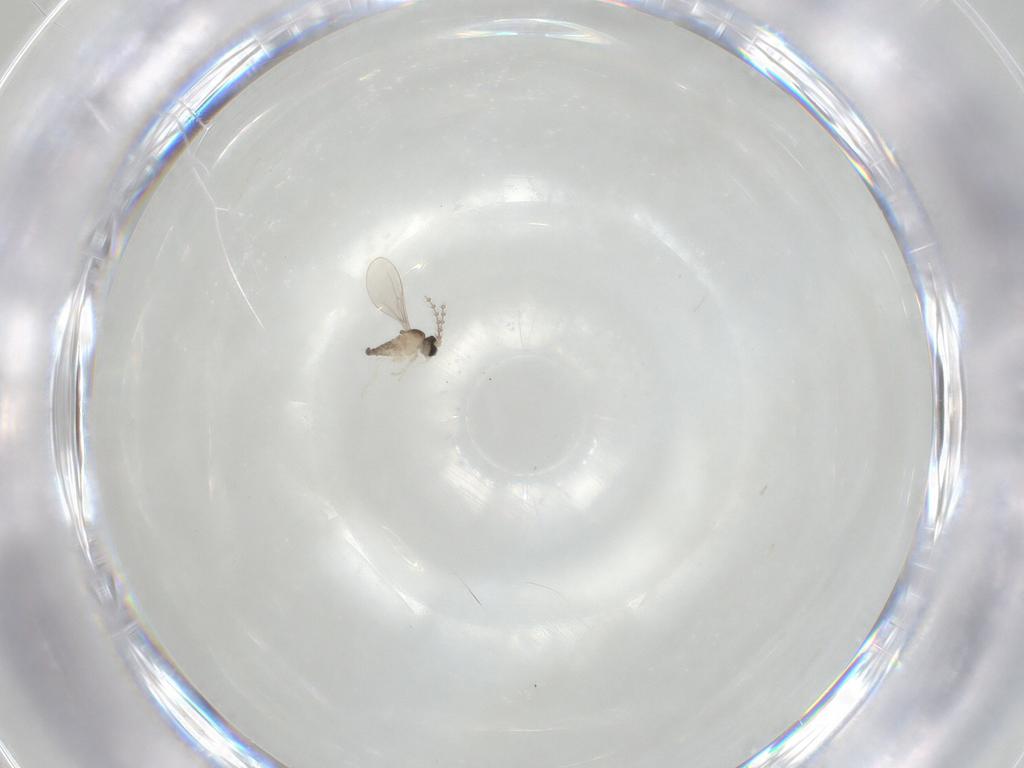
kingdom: Animalia
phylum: Arthropoda
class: Insecta
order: Diptera
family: Cecidomyiidae
